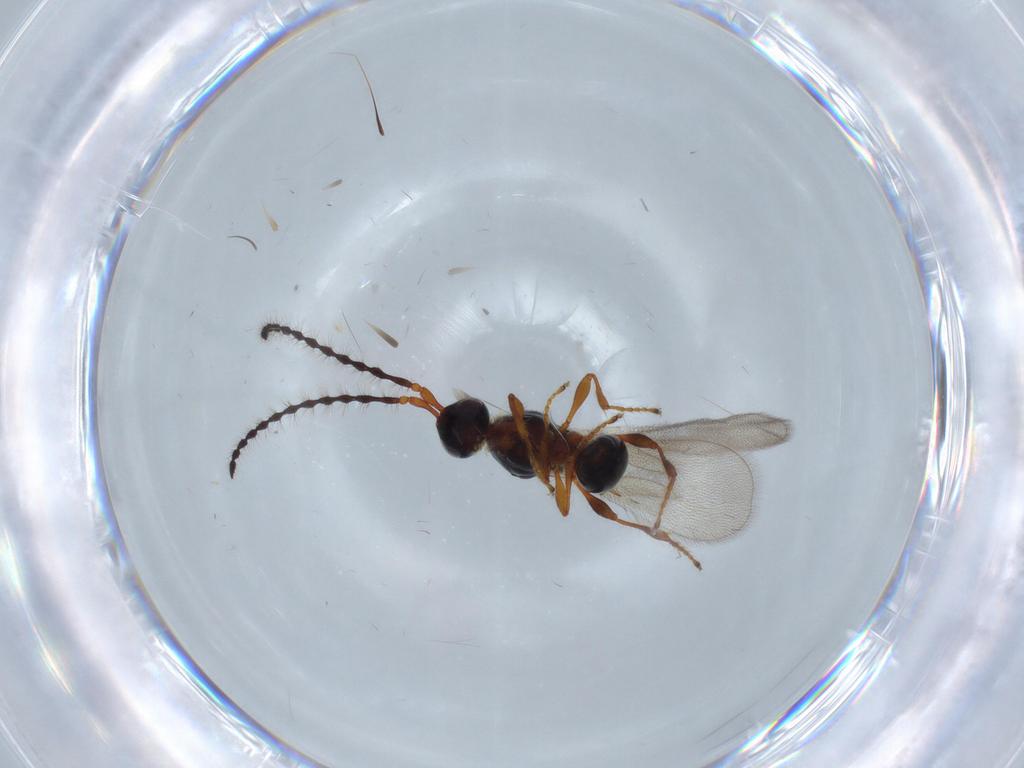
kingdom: Animalia
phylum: Arthropoda
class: Insecta
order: Hymenoptera
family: Diapriidae
